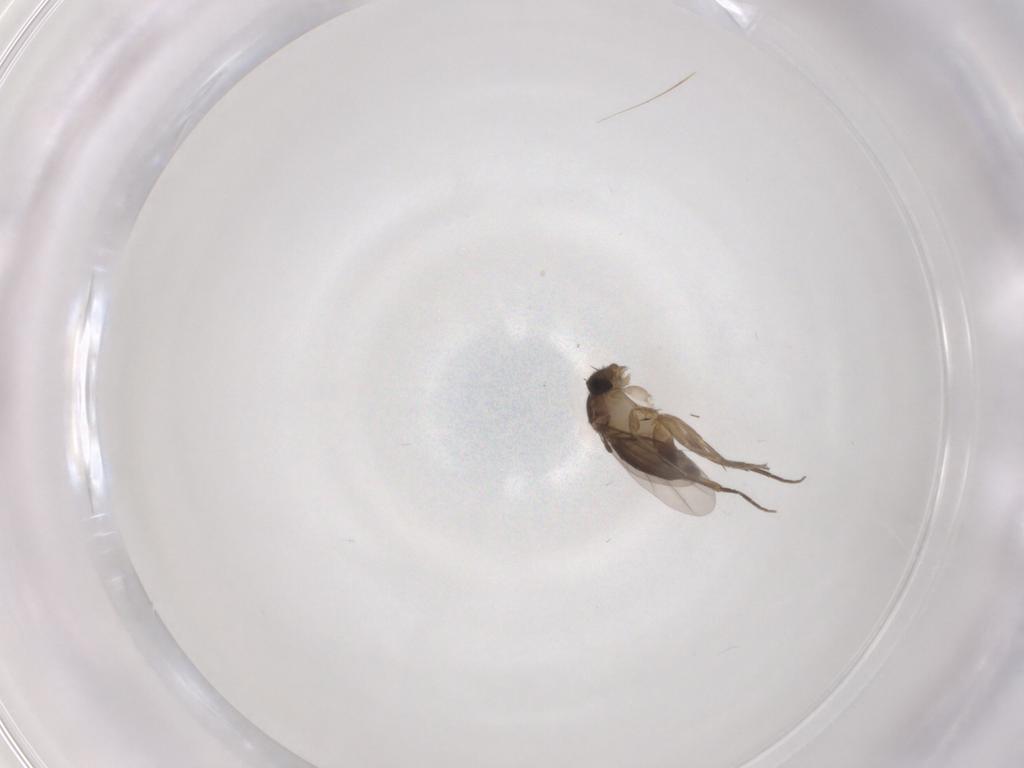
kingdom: Animalia
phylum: Arthropoda
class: Insecta
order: Diptera
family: Phoridae
